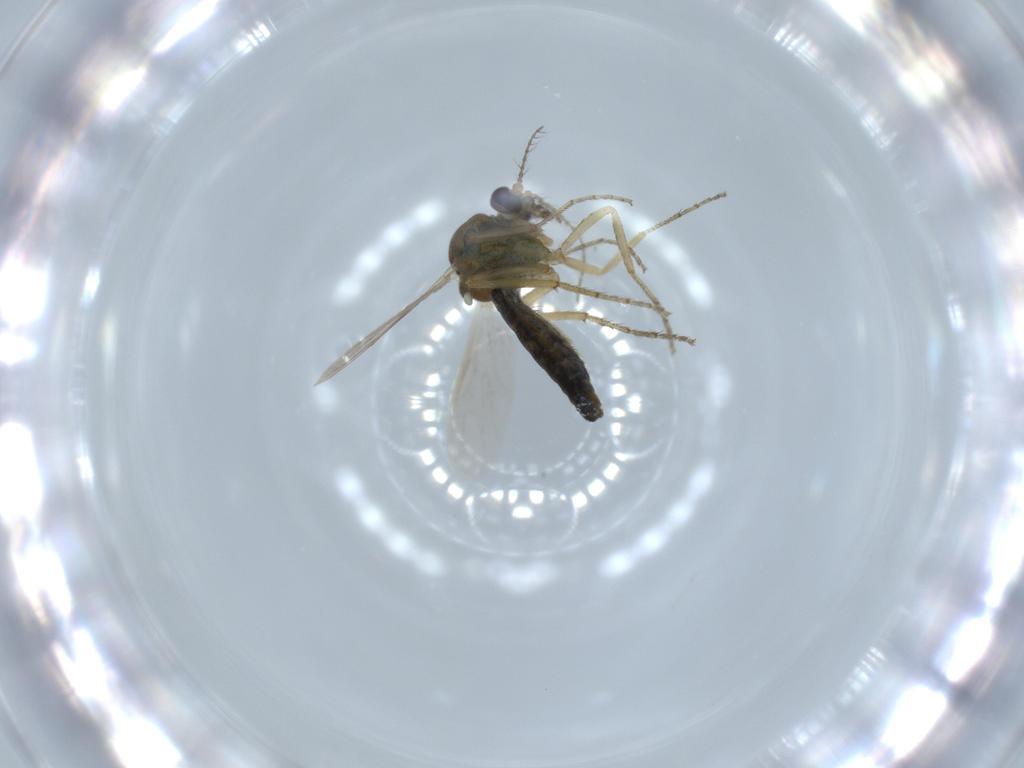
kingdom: Animalia
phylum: Arthropoda
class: Insecta
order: Diptera
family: Ceratopogonidae
